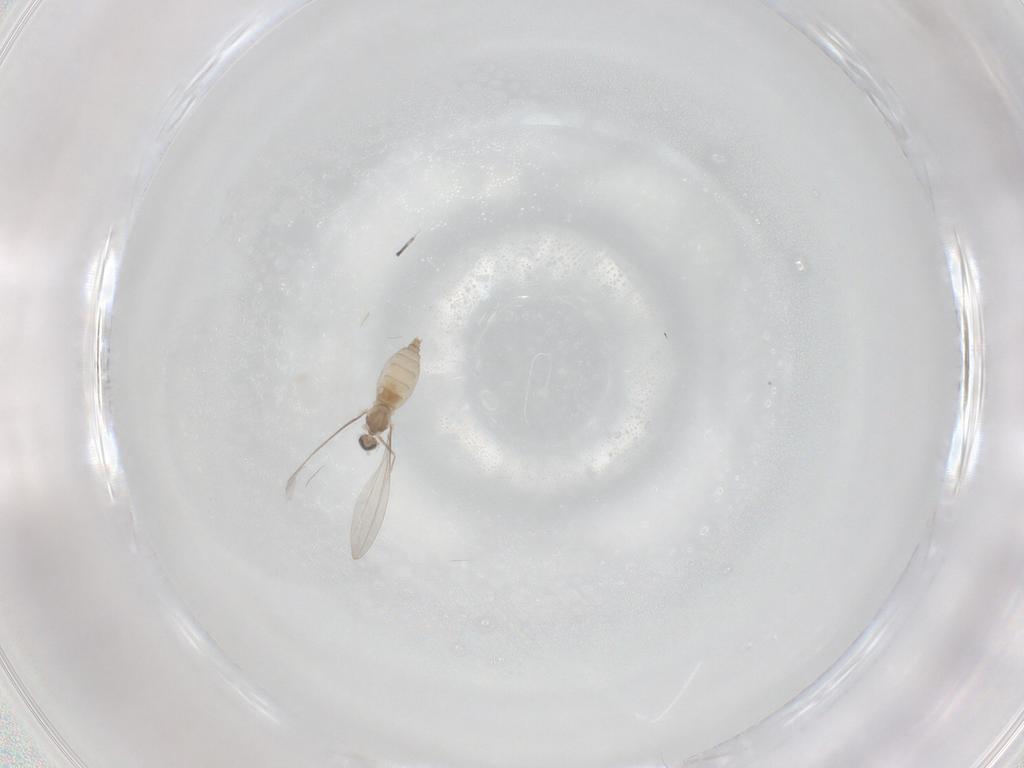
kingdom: Animalia
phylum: Arthropoda
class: Insecta
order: Diptera
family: Cecidomyiidae
